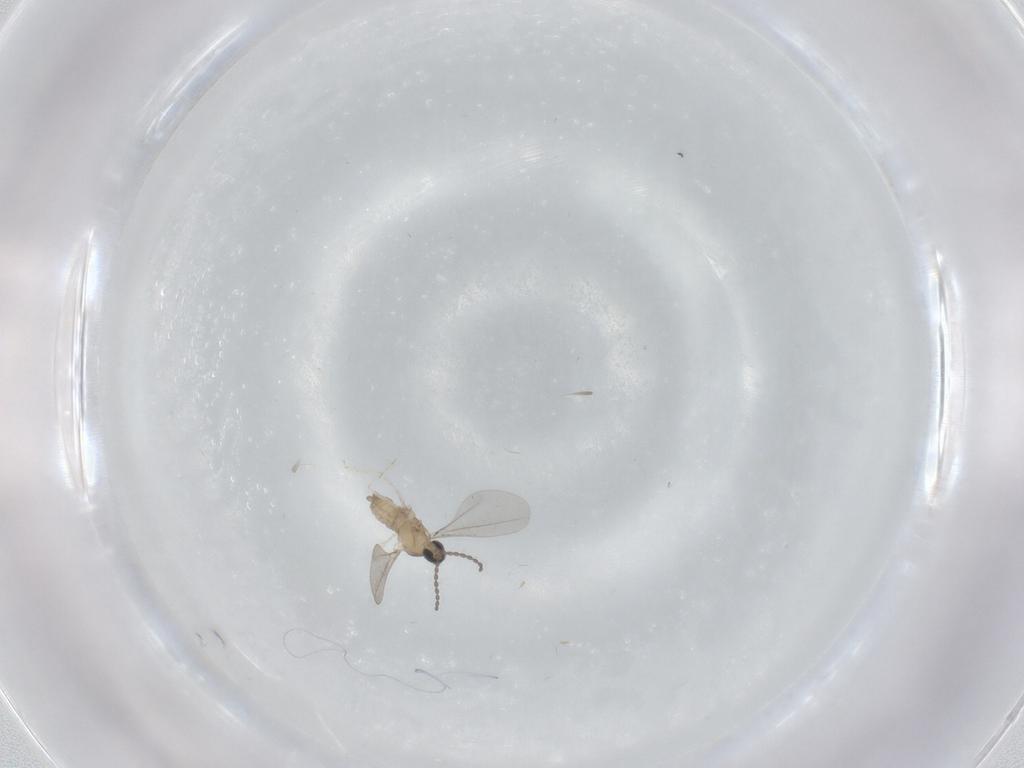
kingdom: Animalia
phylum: Arthropoda
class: Insecta
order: Diptera
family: Cecidomyiidae
